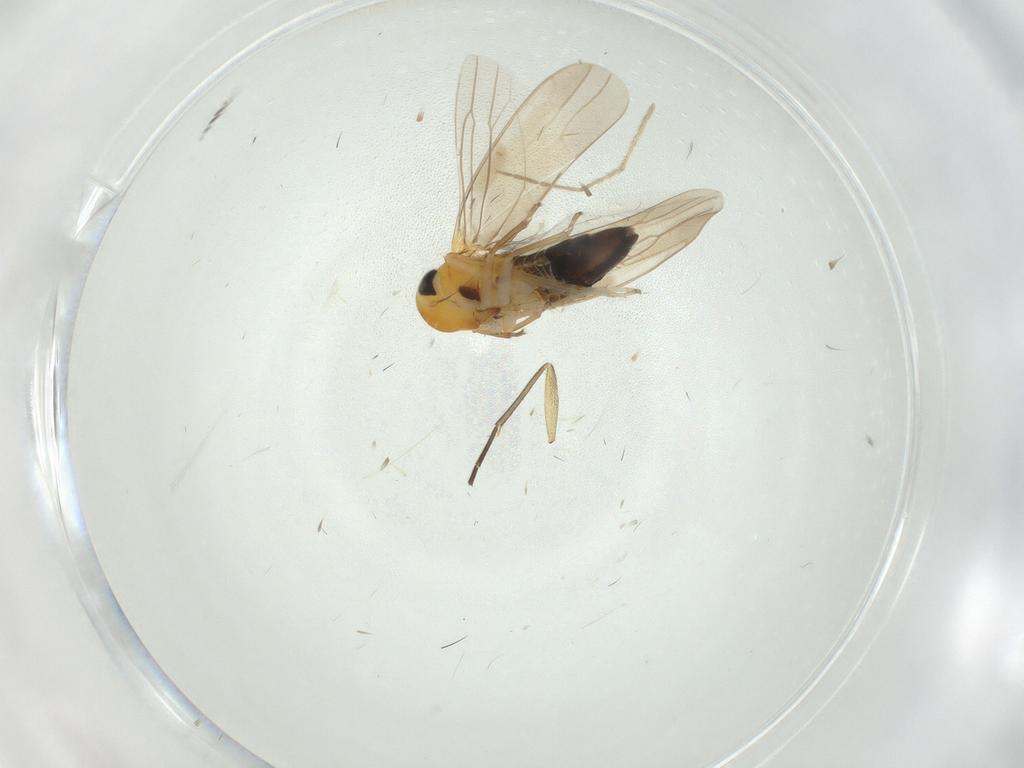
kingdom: Animalia
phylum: Arthropoda
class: Insecta
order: Hemiptera
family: Cicadellidae
